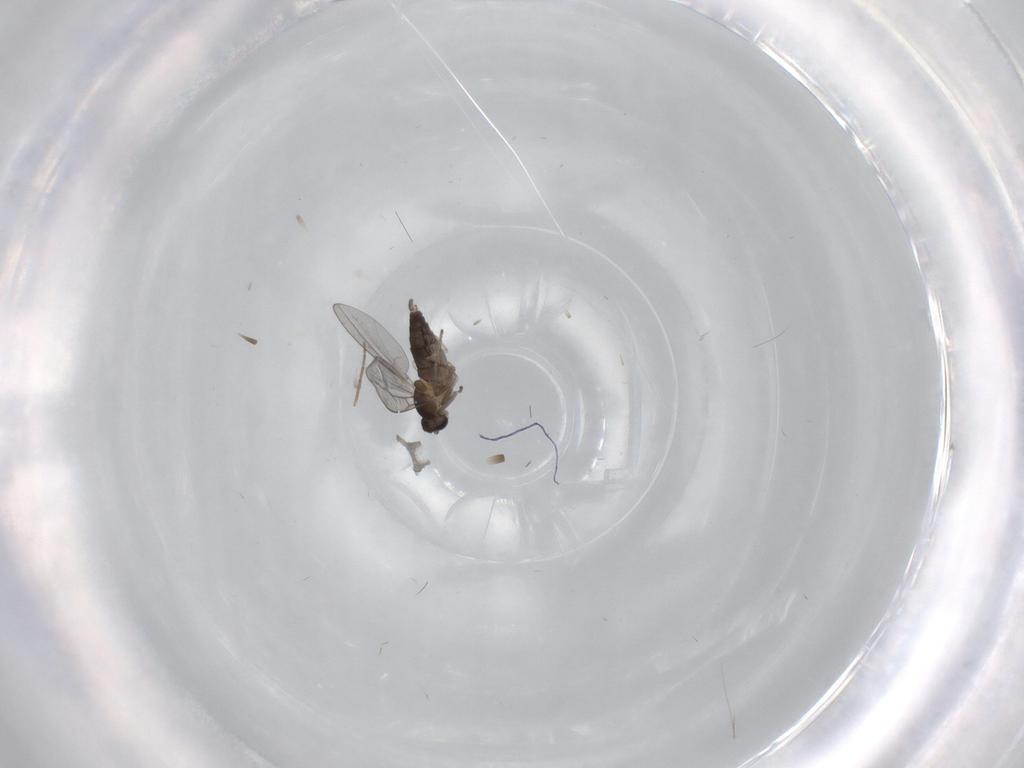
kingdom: Animalia
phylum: Arthropoda
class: Insecta
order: Diptera
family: Cecidomyiidae
